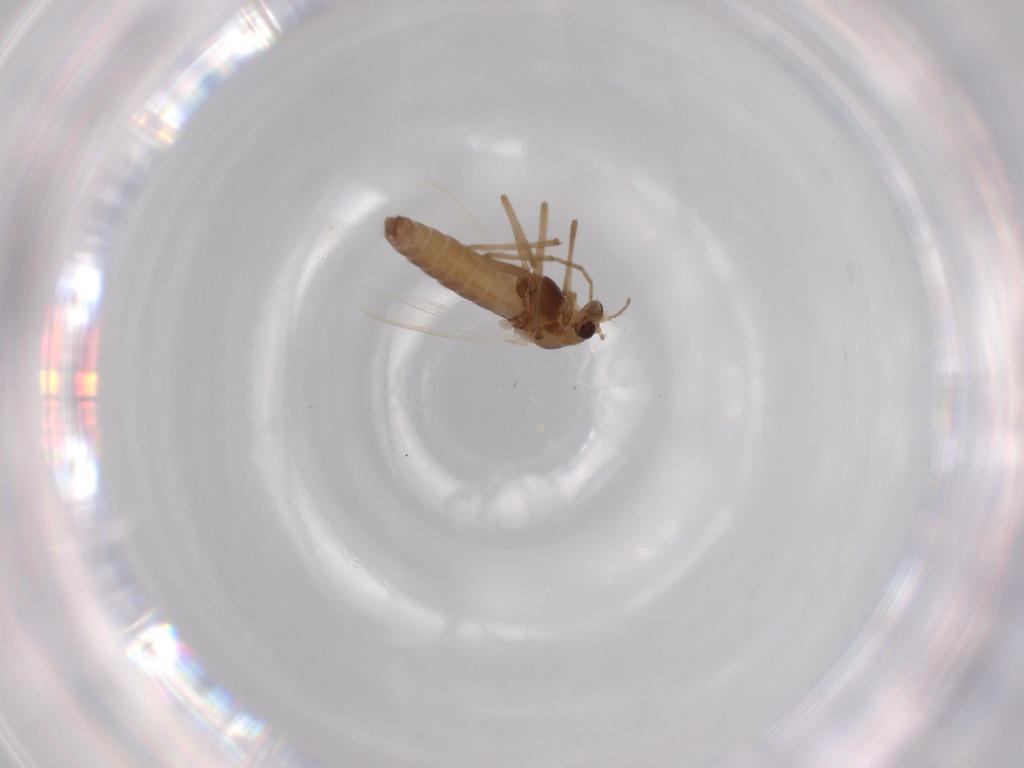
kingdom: Animalia
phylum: Arthropoda
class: Insecta
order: Diptera
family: Chironomidae
